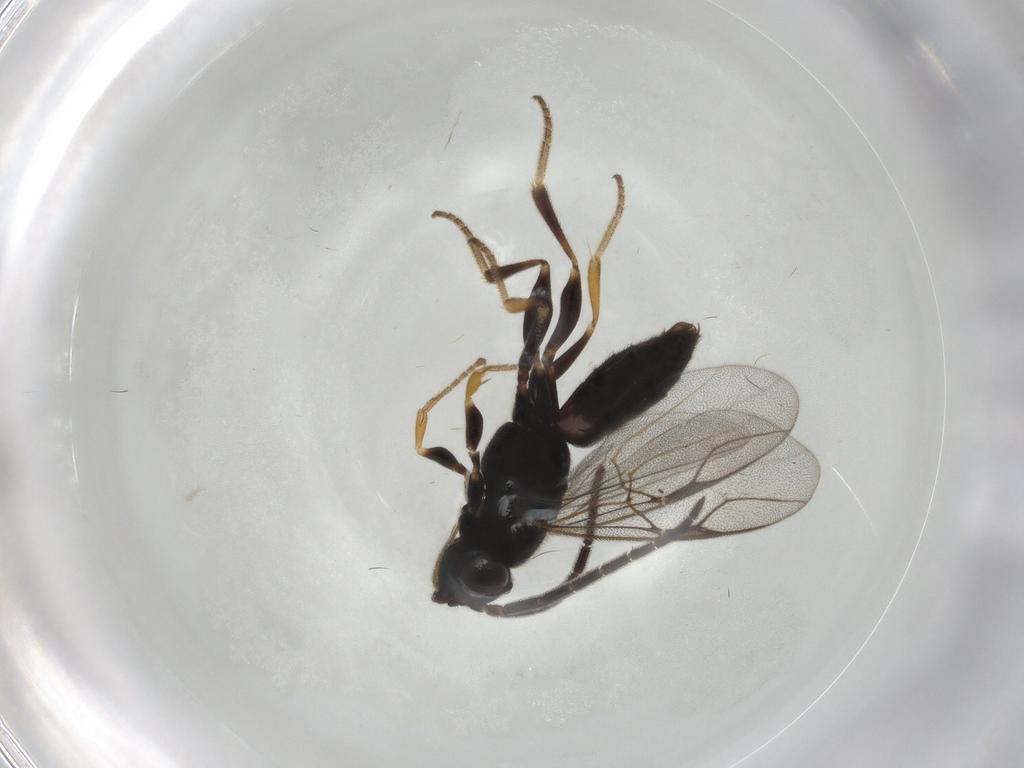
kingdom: Animalia
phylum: Arthropoda
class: Insecta
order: Hymenoptera
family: Dryinidae
